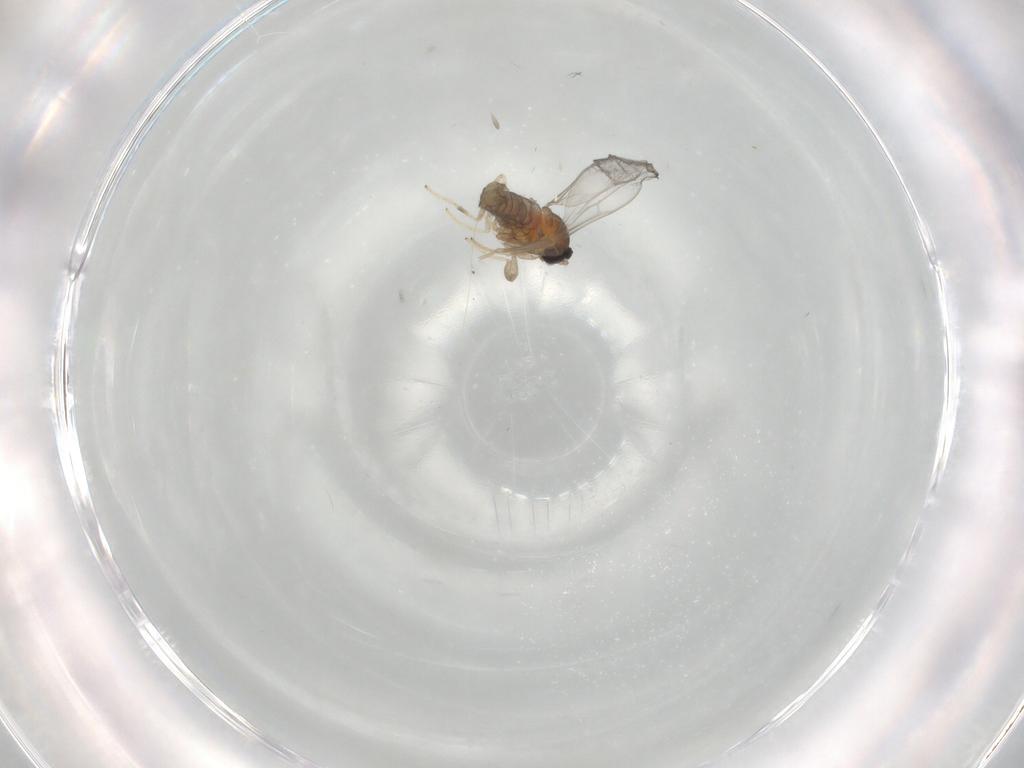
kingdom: Animalia
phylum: Arthropoda
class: Insecta
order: Diptera
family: Cecidomyiidae
